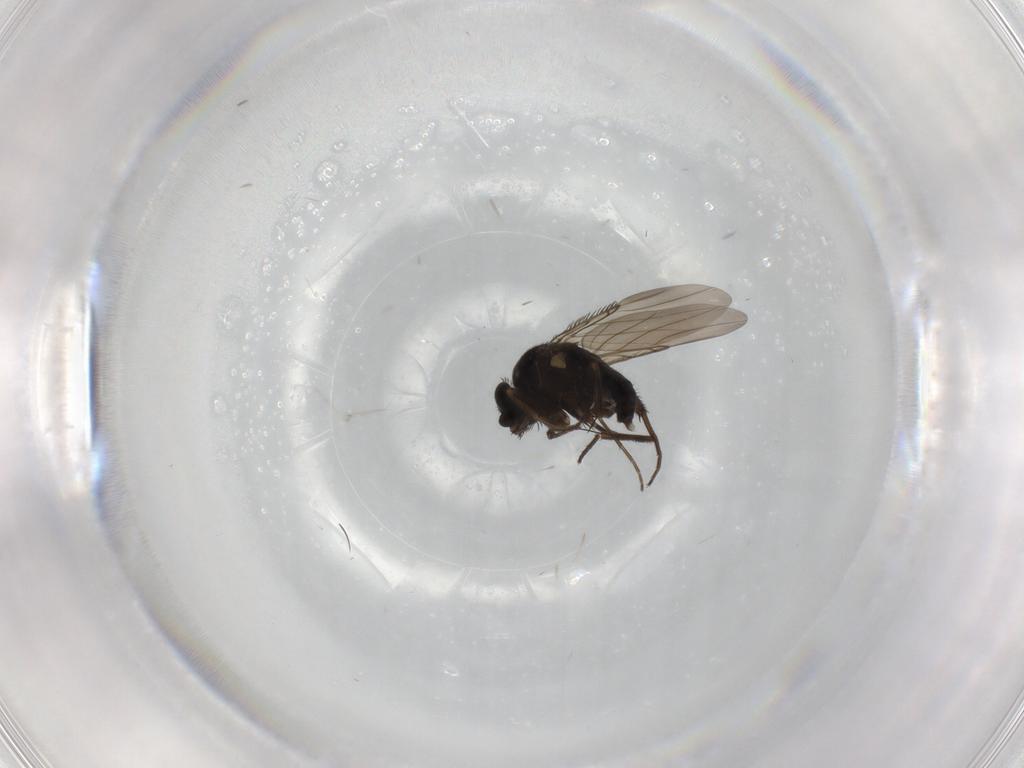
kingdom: Animalia
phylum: Arthropoda
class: Insecta
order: Diptera
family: Phoridae
